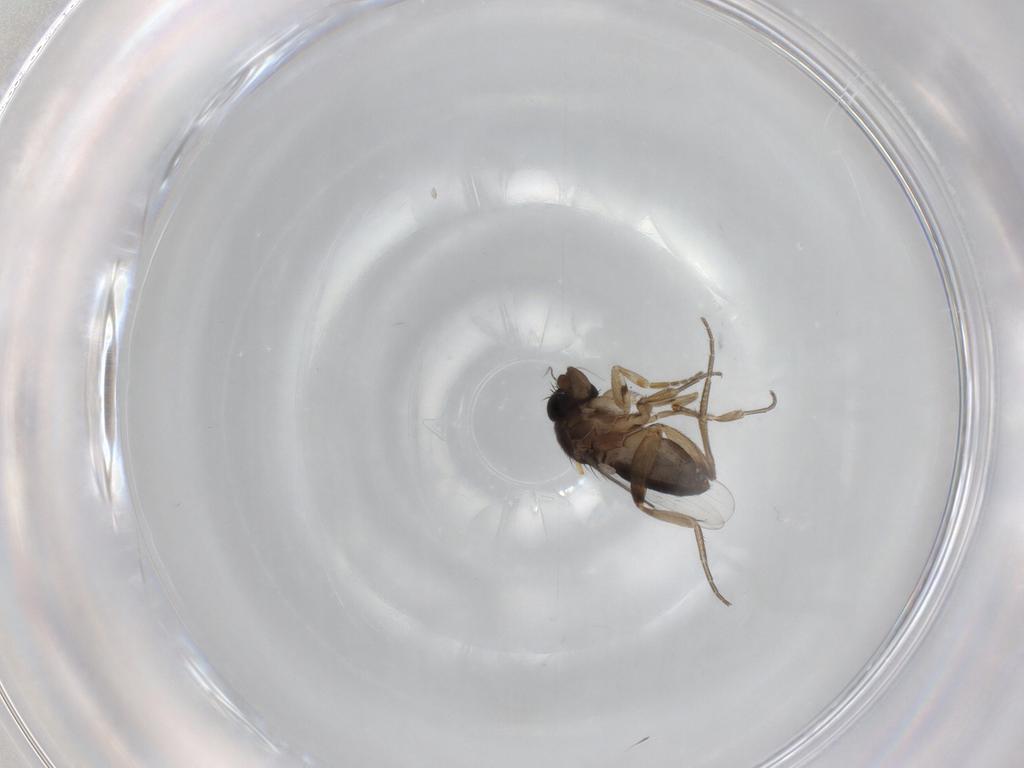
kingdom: Animalia
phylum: Arthropoda
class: Insecta
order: Diptera
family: Phoridae
